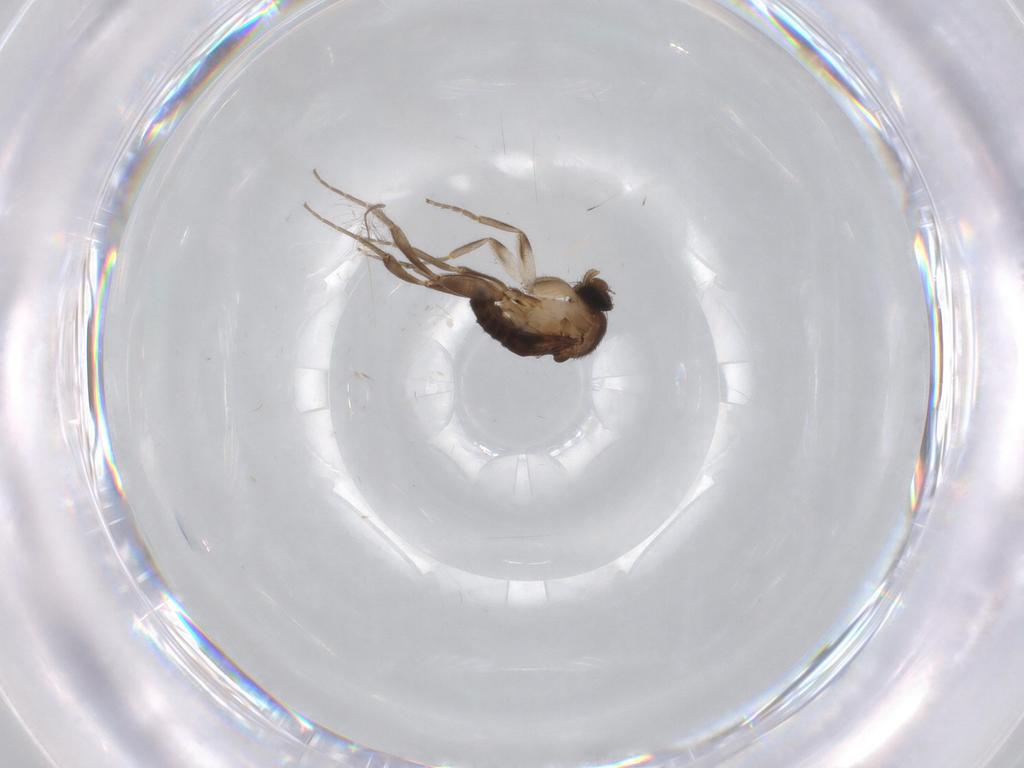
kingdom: Animalia
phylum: Arthropoda
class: Insecta
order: Diptera
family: Chironomidae
